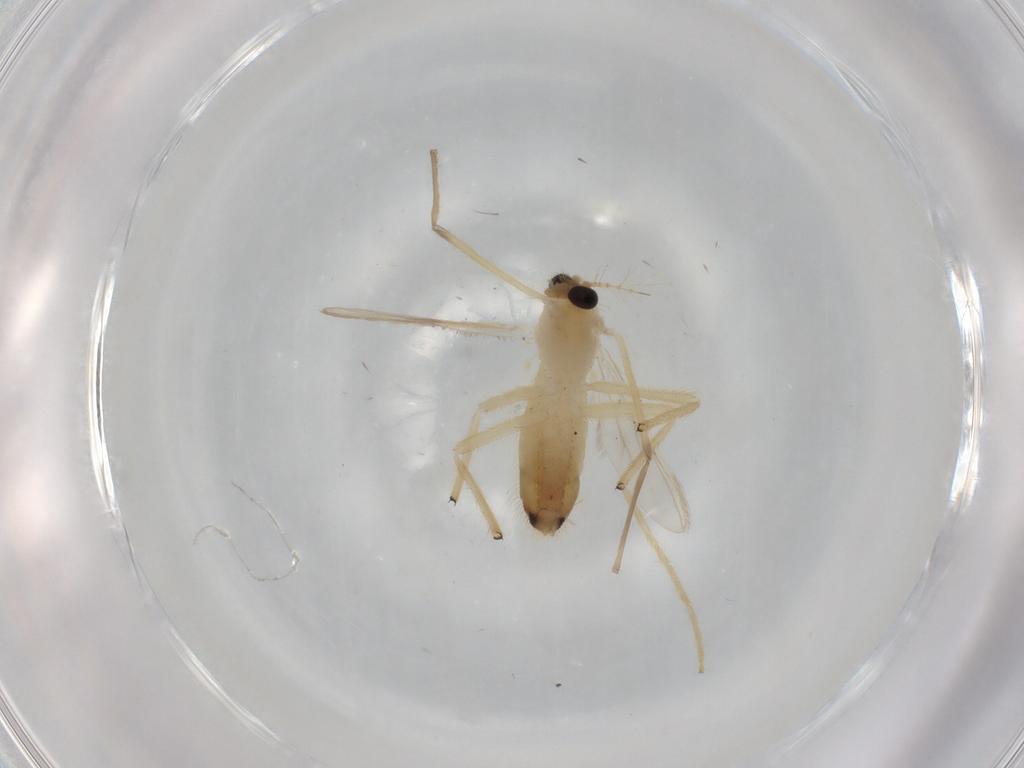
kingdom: Animalia
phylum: Arthropoda
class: Insecta
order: Diptera
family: Chironomidae
